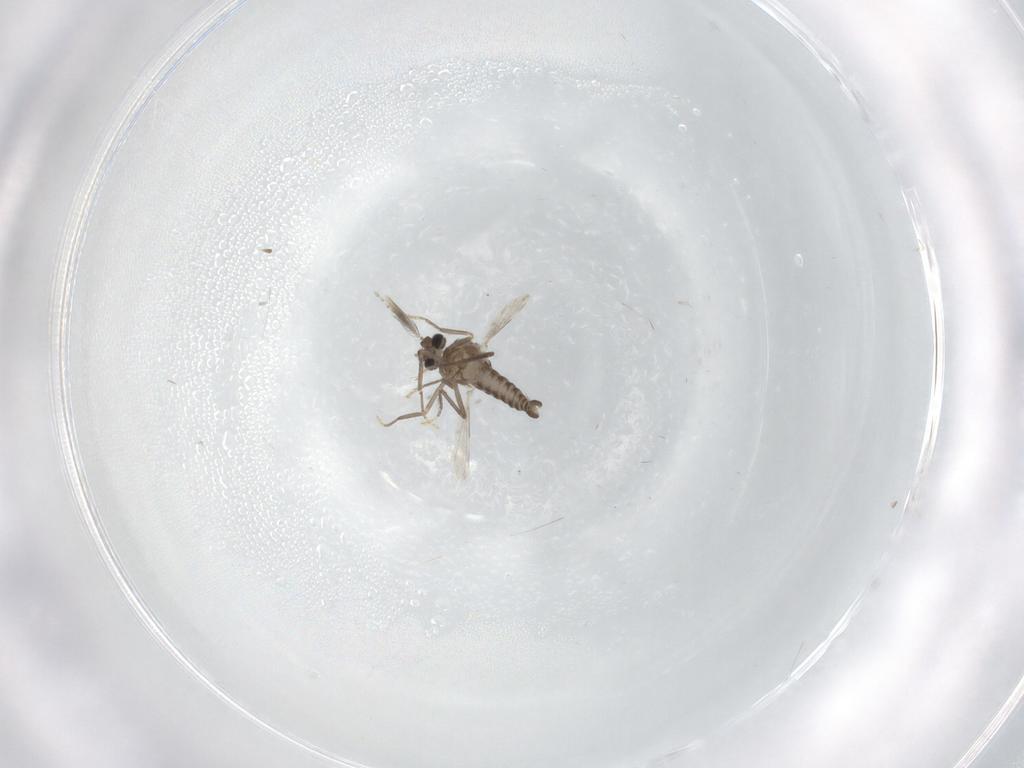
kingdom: Animalia
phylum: Arthropoda
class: Insecta
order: Diptera
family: Ceratopogonidae
